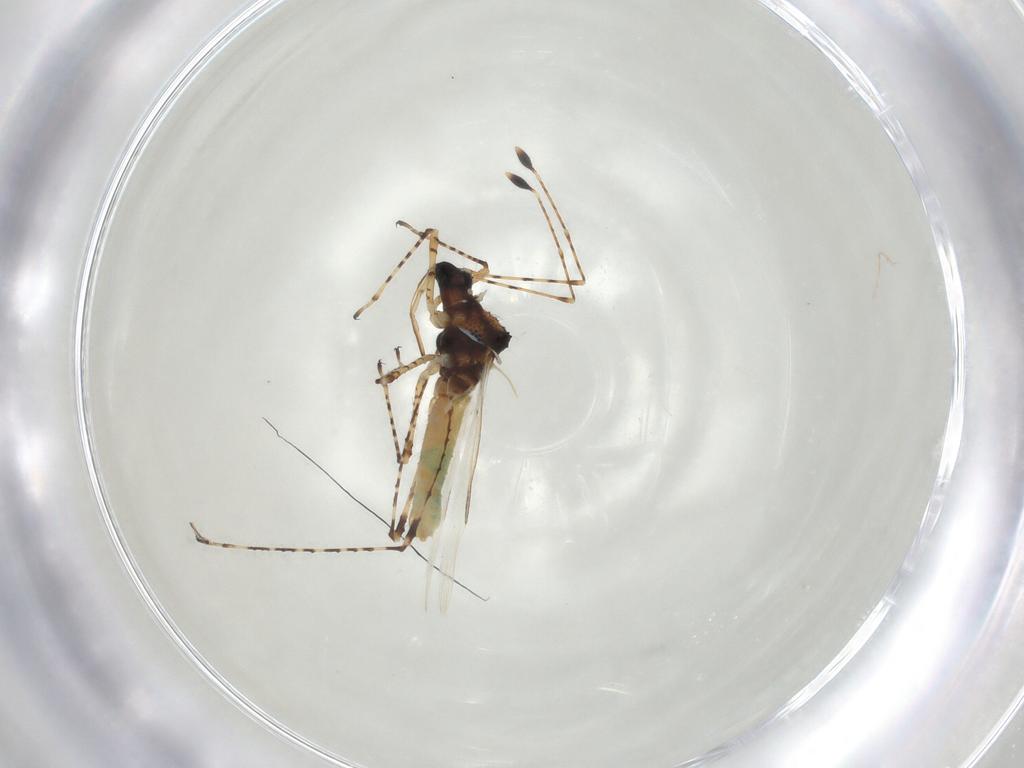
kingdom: Animalia
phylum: Arthropoda
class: Insecta
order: Hemiptera
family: Berytidae
